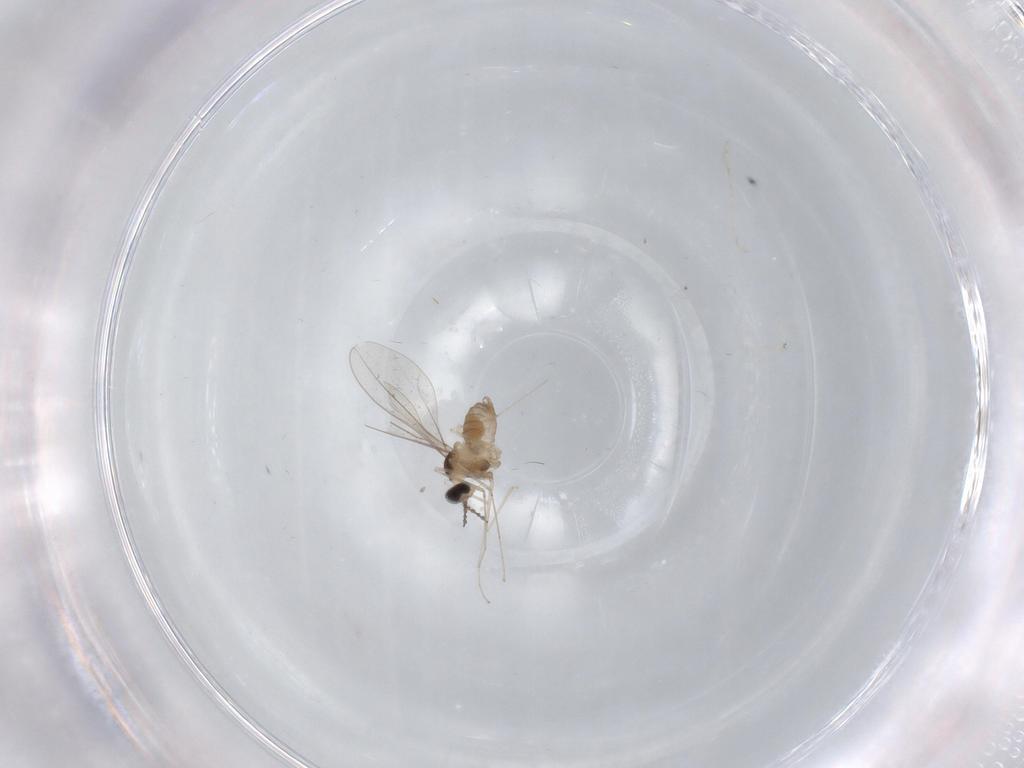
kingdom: Animalia
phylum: Arthropoda
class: Insecta
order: Diptera
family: Cecidomyiidae
